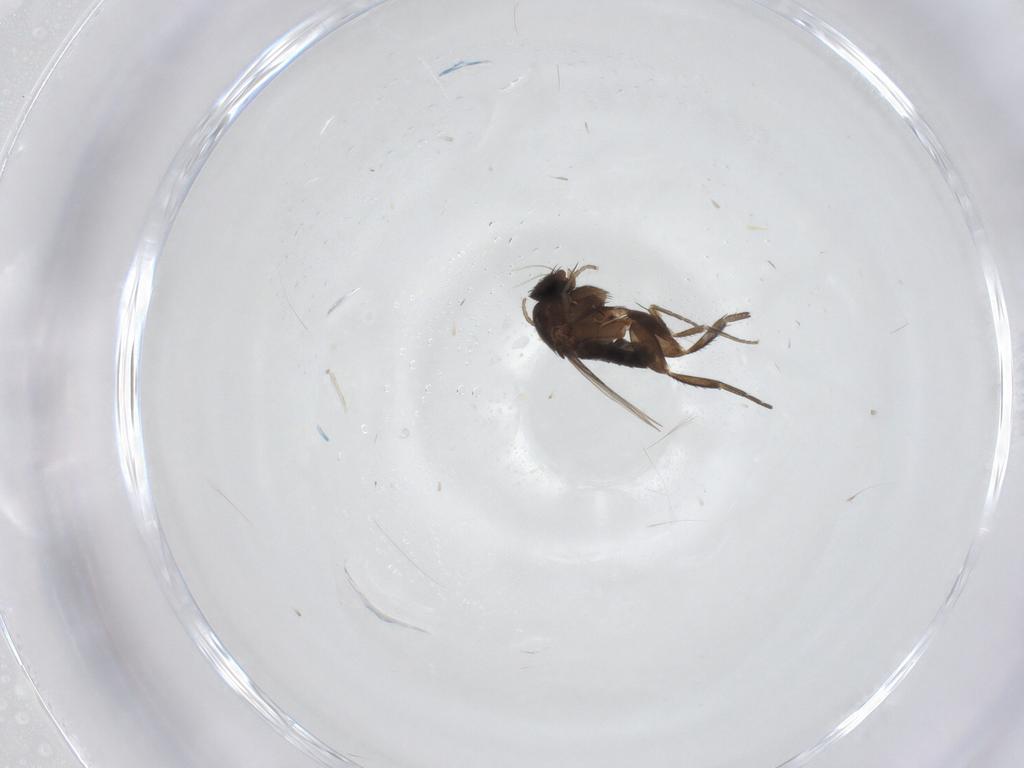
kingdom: Animalia
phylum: Arthropoda
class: Insecta
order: Diptera
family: Phoridae
